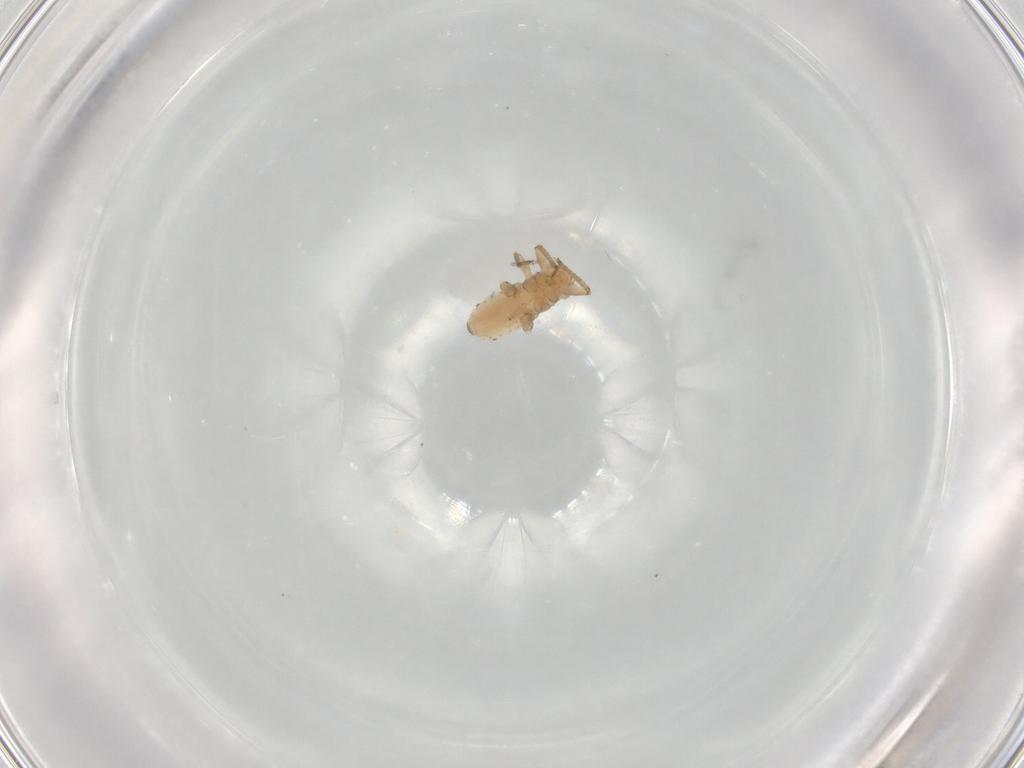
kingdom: Animalia
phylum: Arthropoda
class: Insecta
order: Hemiptera
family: Aphididae
